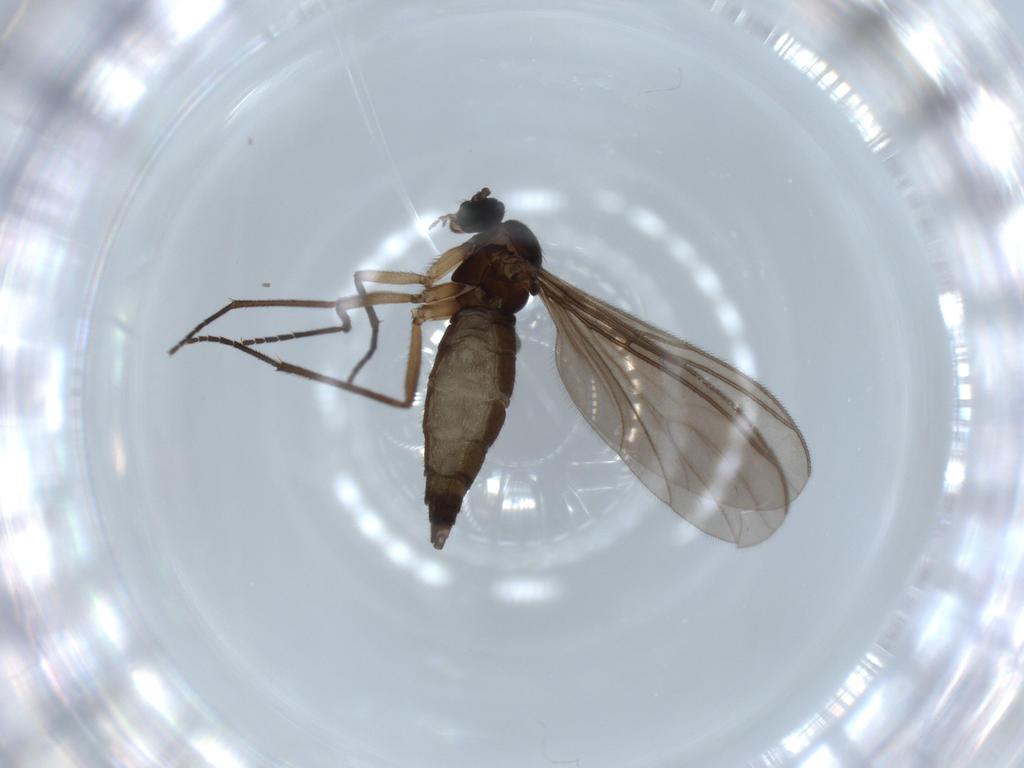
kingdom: Animalia
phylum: Arthropoda
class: Insecta
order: Diptera
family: Sciaridae
